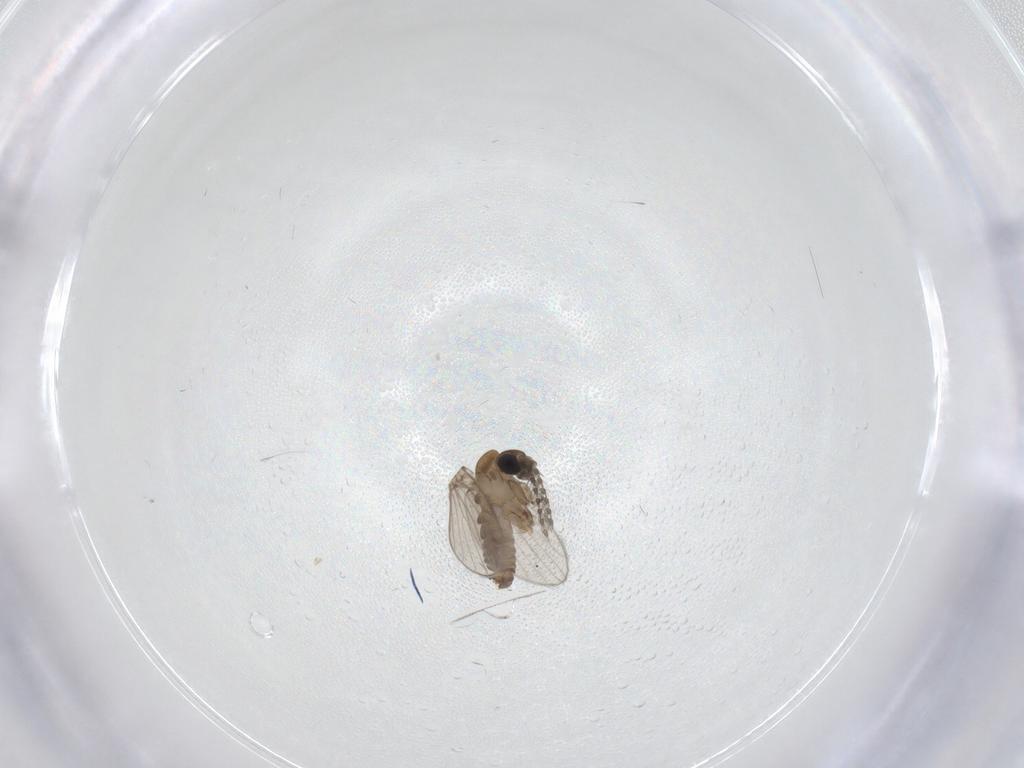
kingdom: Animalia
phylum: Arthropoda
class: Insecta
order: Diptera
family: Psychodidae
